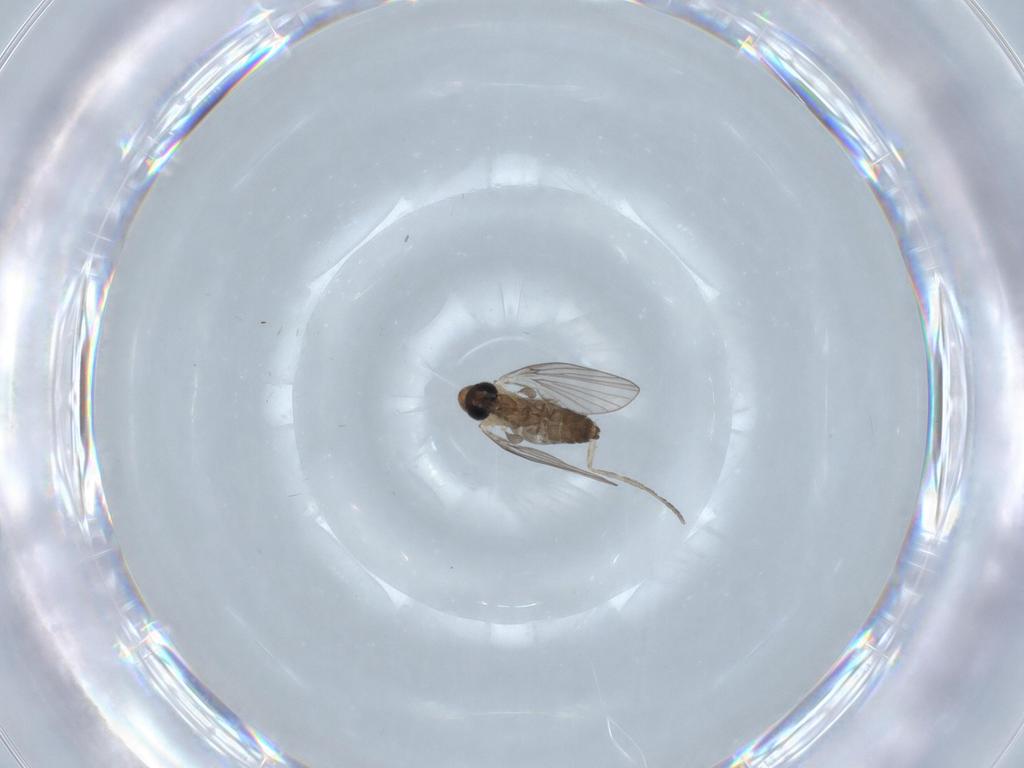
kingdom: Animalia
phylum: Arthropoda
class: Insecta
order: Diptera
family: Psychodidae
